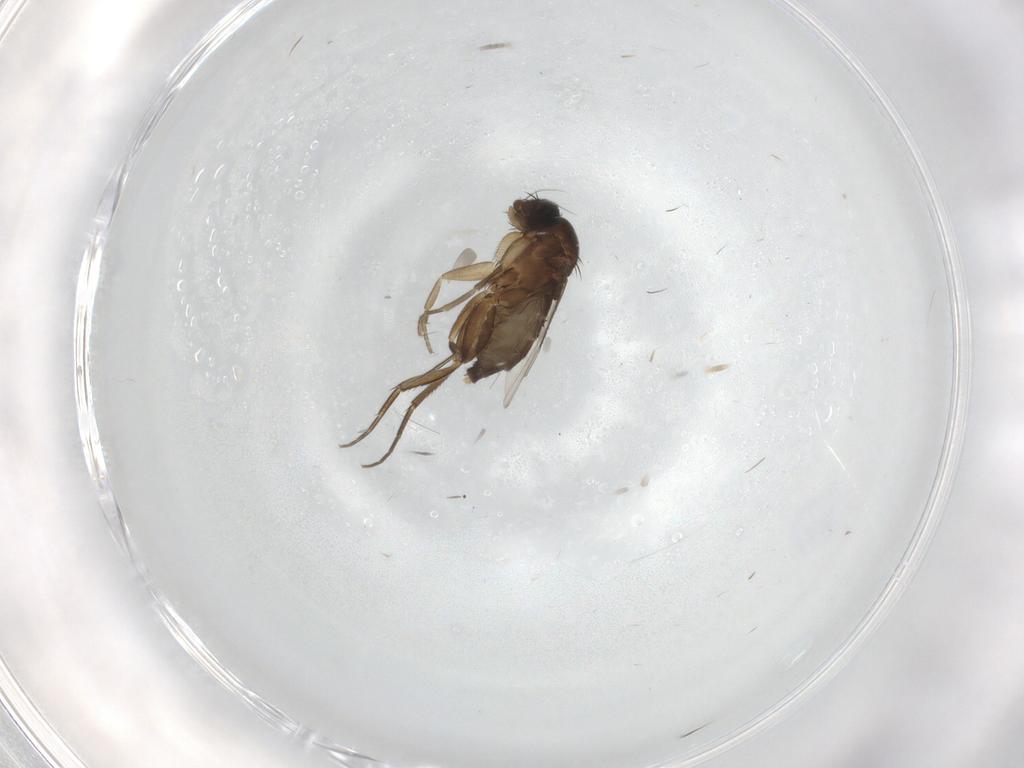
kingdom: Animalia
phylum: Arthropoda
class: Insecta
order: Diptera
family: Phoridae
